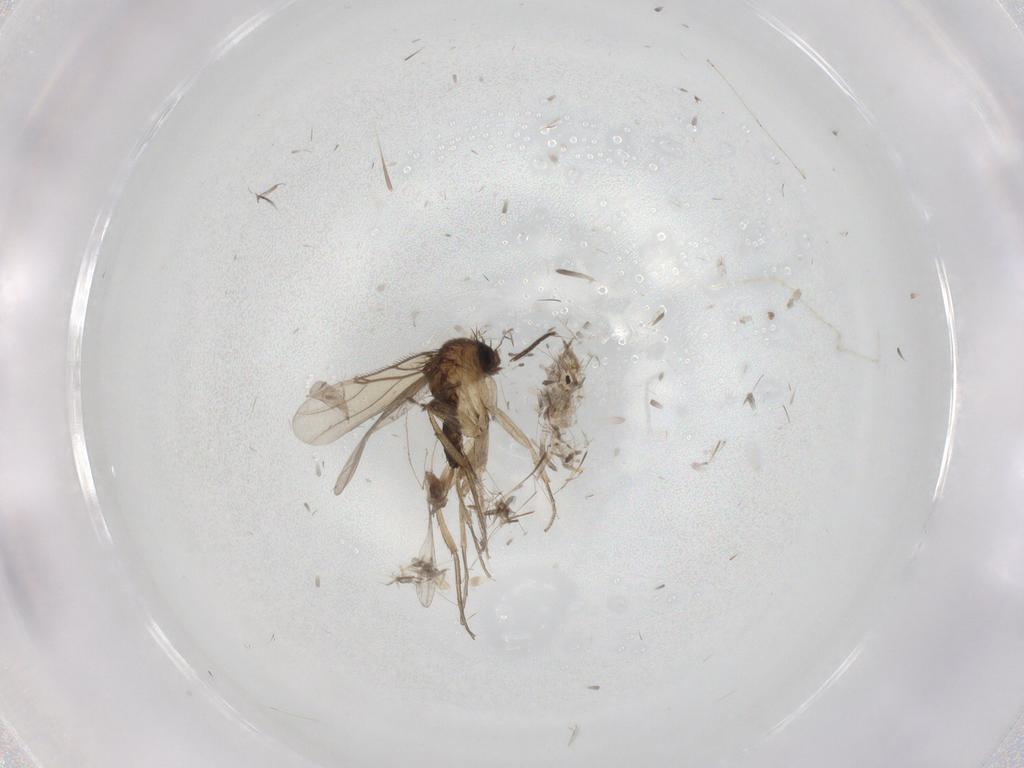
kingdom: Animalia
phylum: Arthropoda
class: Insecta
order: Diptera
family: Phoridae
